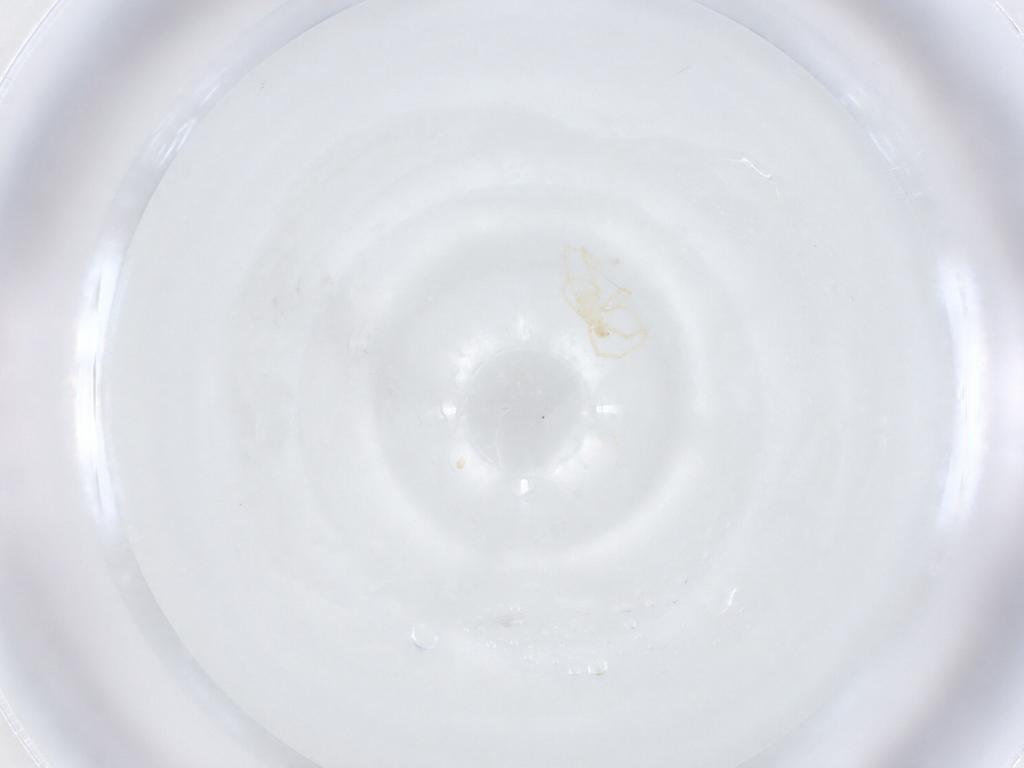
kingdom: Animalia
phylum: Arthropoda
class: Arachnida
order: Trombidiformes
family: Erythraeidae
